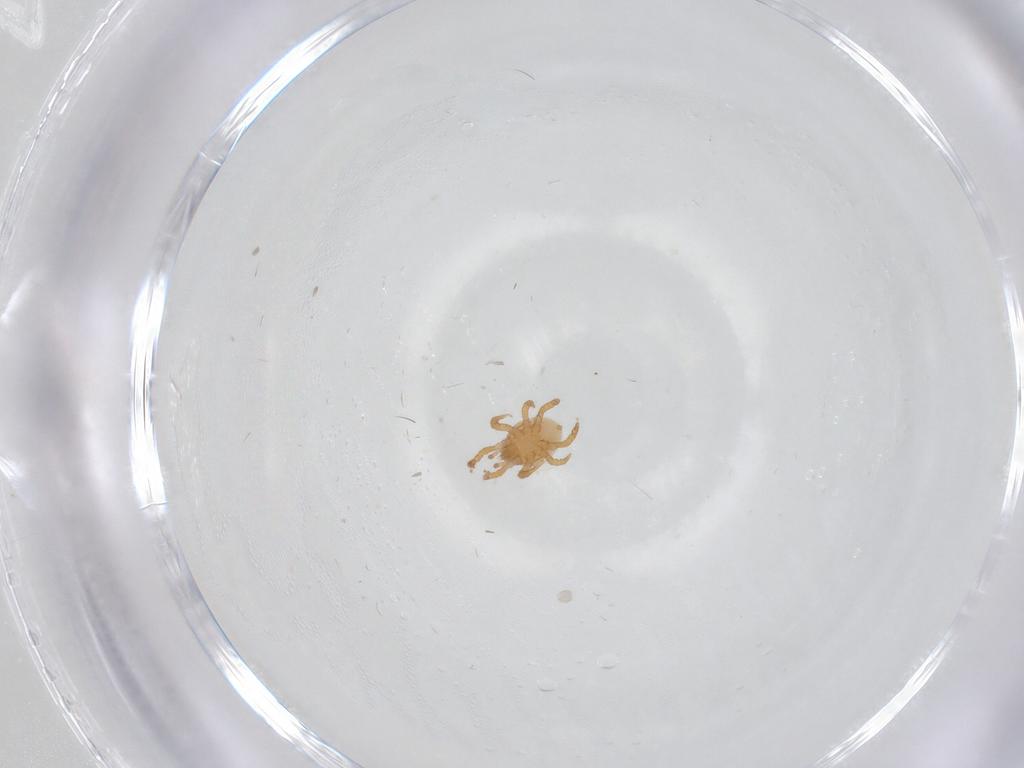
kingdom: Animalia
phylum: Arthropoda
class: Arachnida
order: Mesostigmata
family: Parasitidae
